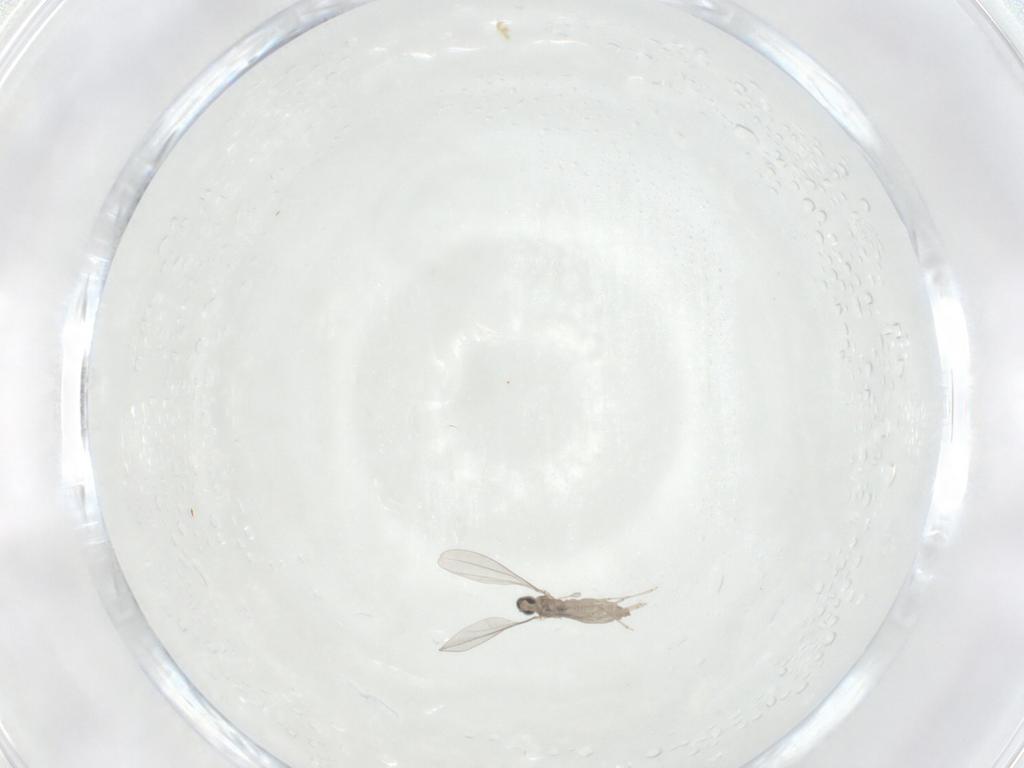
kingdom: Animalia
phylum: Arthropoda
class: Insecta
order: Diptera
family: Cecidomyiidae
